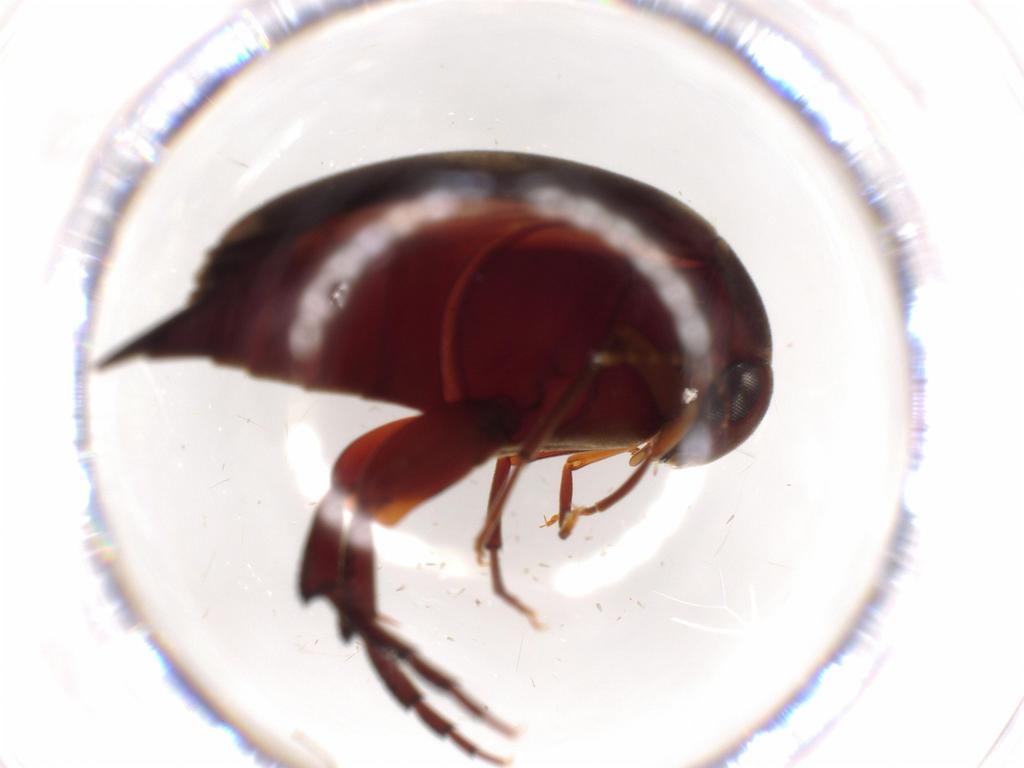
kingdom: Animalia
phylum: Arthropoda
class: Insecta
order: Coleoptera
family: Chrysomelidae
